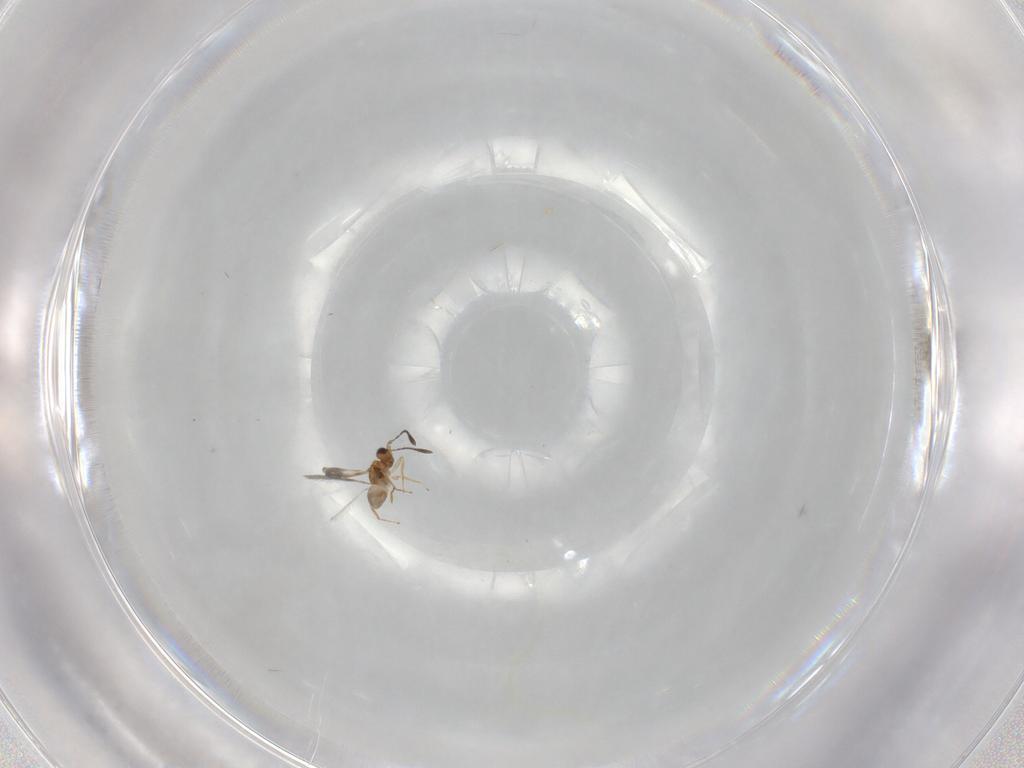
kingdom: Animalia
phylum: Arthropoda
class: Insecta
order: Hymenoptera
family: Mymaridae
